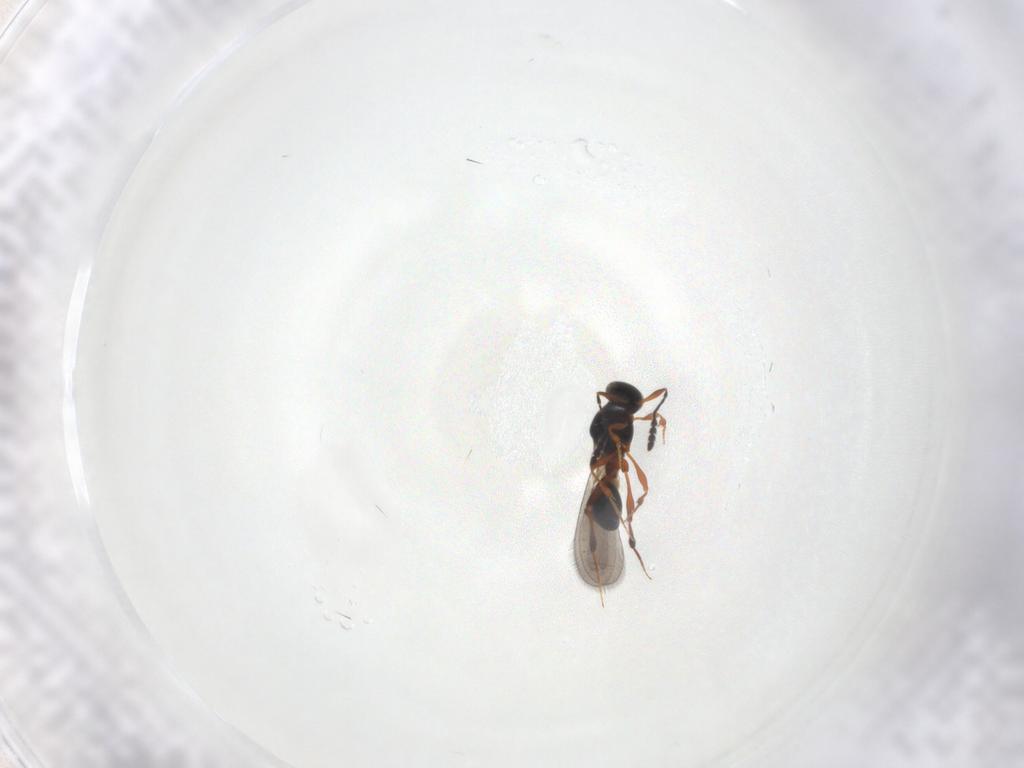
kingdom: Animalia
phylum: Arthropoda
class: Insecta
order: Hymenoptera
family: Platygastridae
